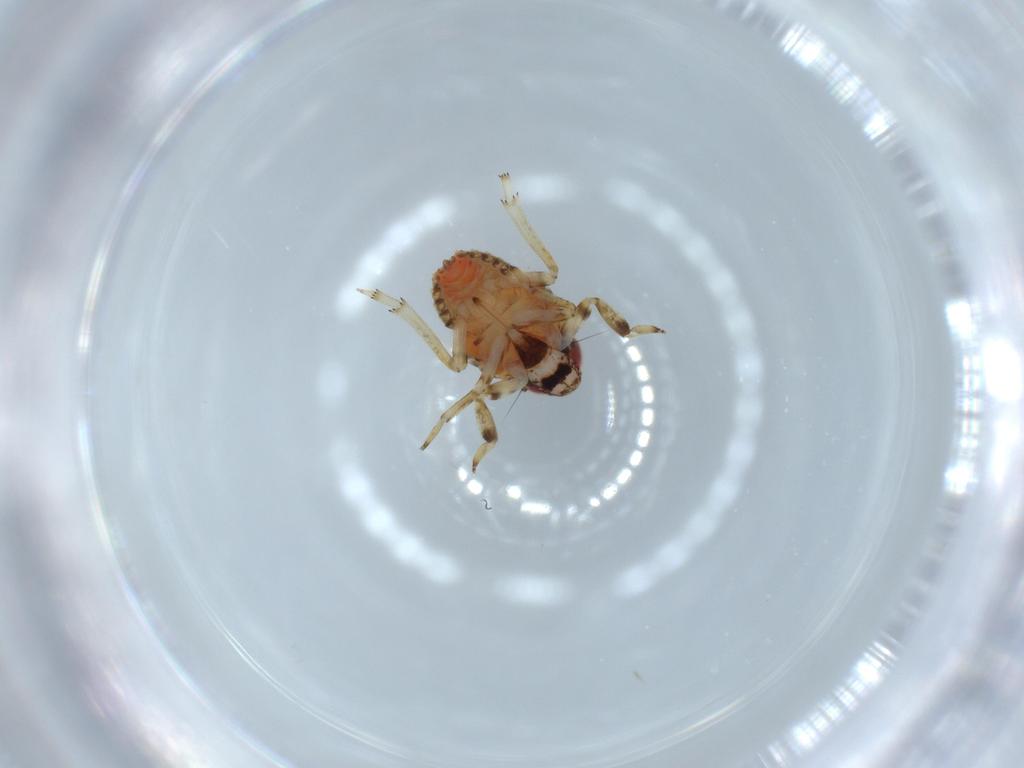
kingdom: Animalia
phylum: Arthropoda
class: Insecta
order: Hemiptera
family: Issidae
